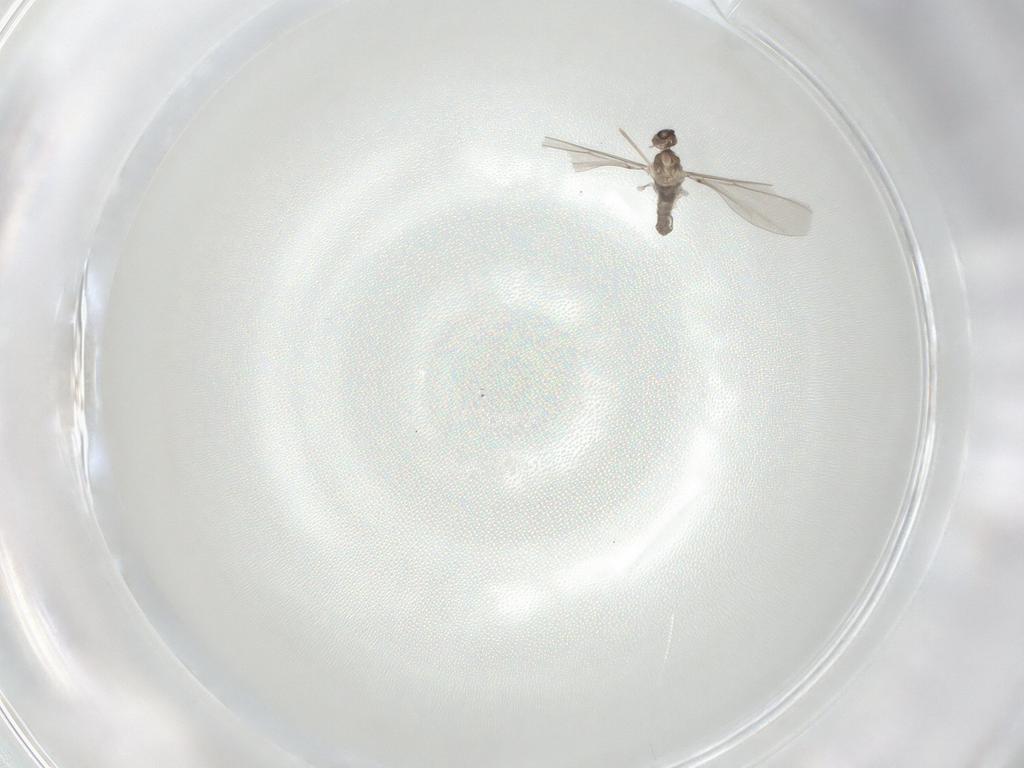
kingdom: Animalia
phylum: Arthropoda
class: Insecta
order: Diptera
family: Cecidomyiidae
